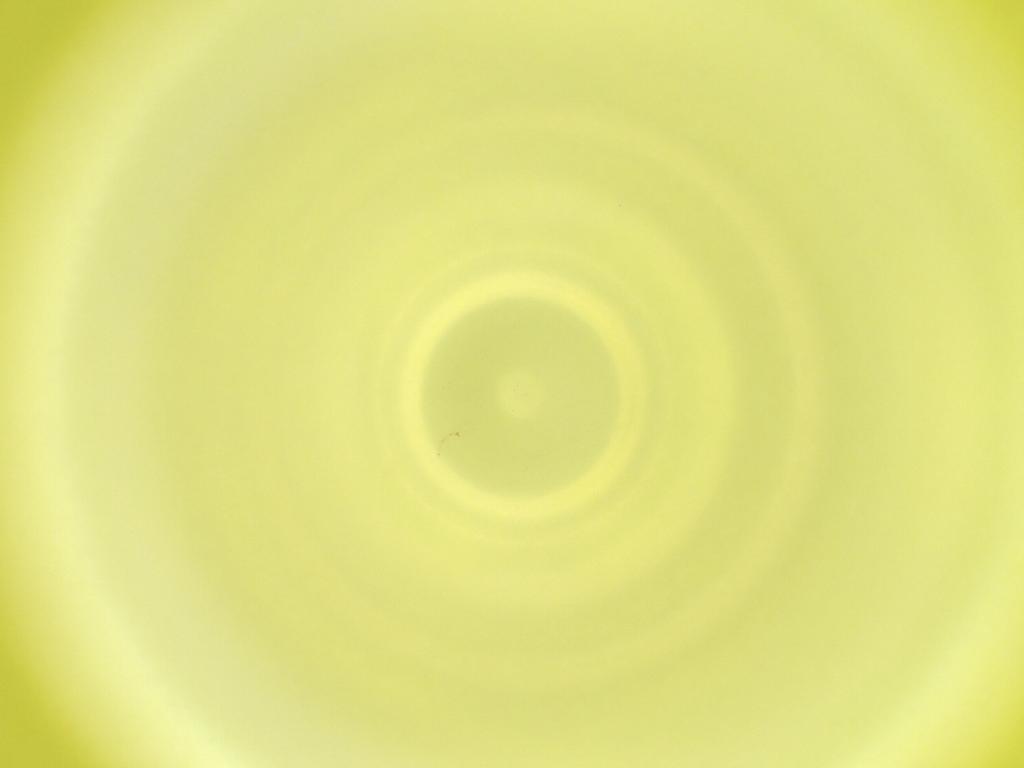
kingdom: Animalia
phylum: Arthropoda
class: Insecta
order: Diptera
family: Cecidomyiidae
